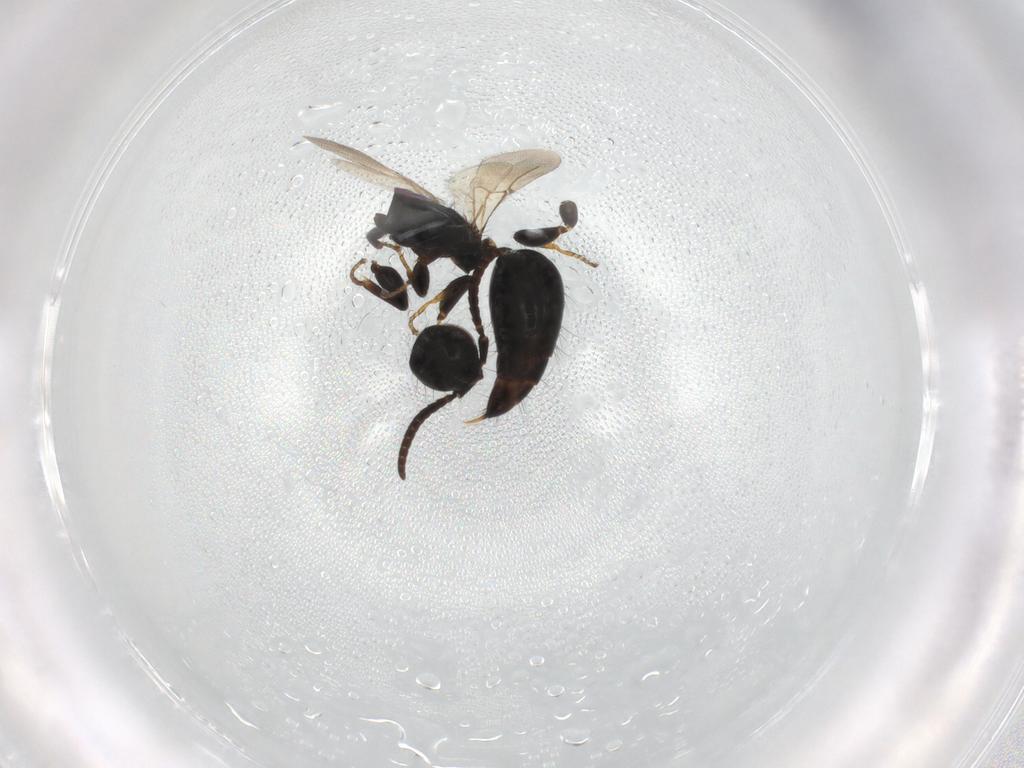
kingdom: Animalia
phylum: Arthropoda
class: Insecta
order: Hymenoptera
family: Bethylidae
